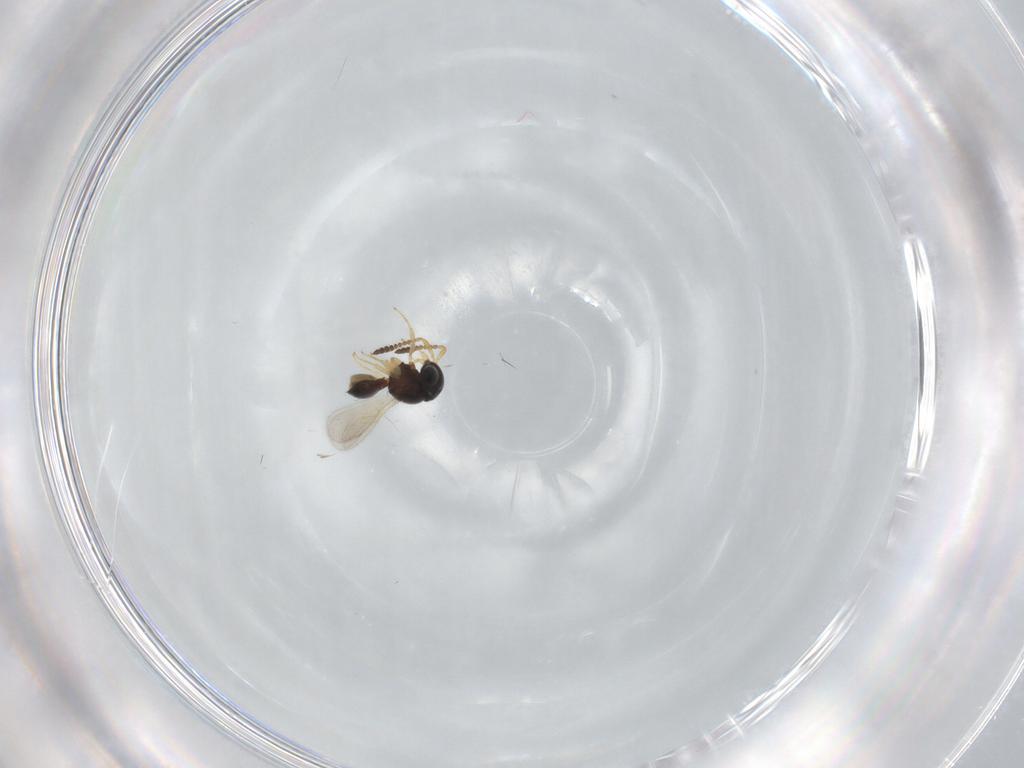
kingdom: Animalia
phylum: Arthropoda
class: Insecta
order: Hymenoptera
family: Scelionidae
